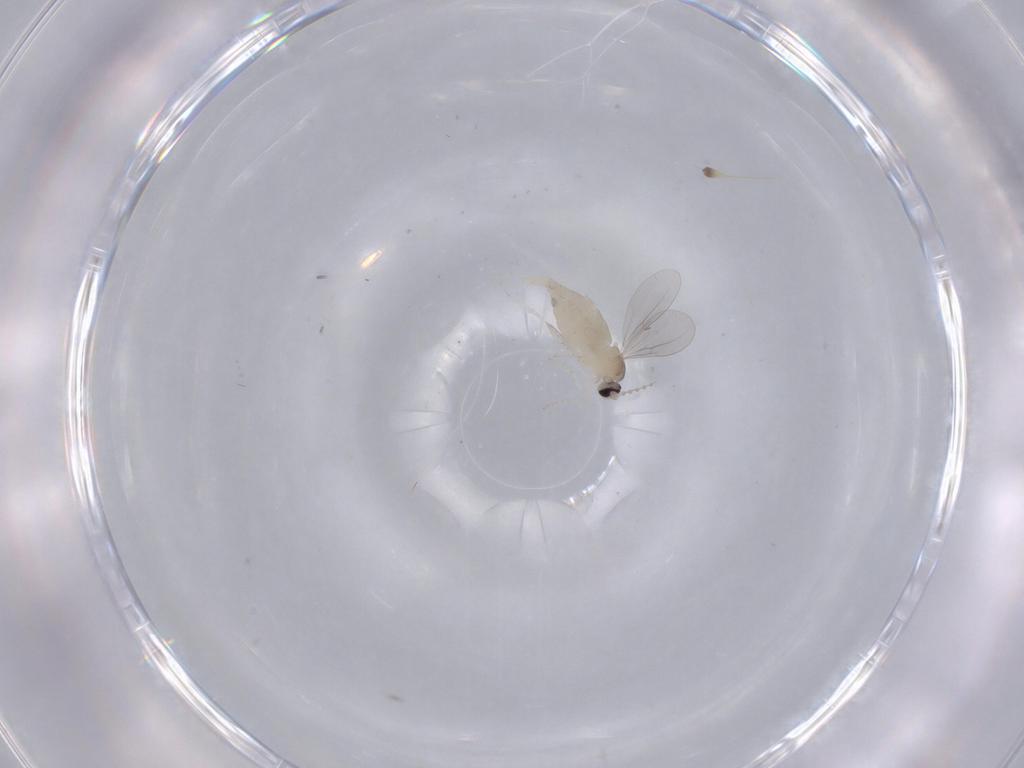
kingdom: Animalia
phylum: Arthropoda
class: Insecta
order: Diptera
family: Cecidomyiidae
